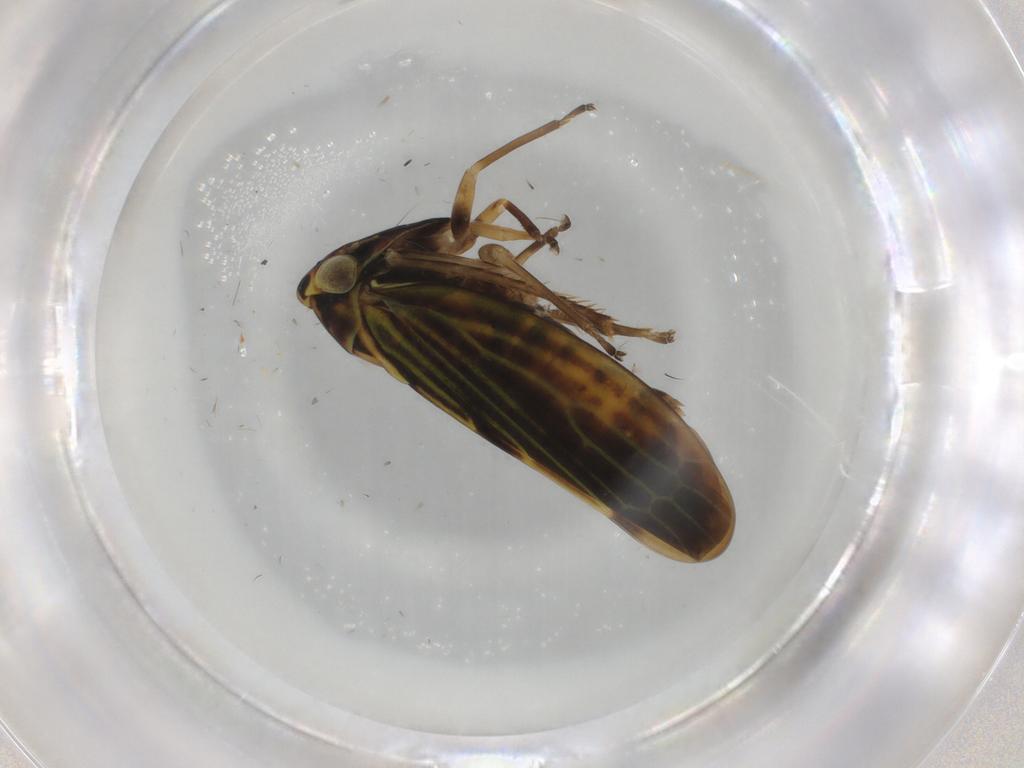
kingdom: Animalia
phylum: Arthropoda
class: Insecta
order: Hemiptera
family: Cicadellidae
